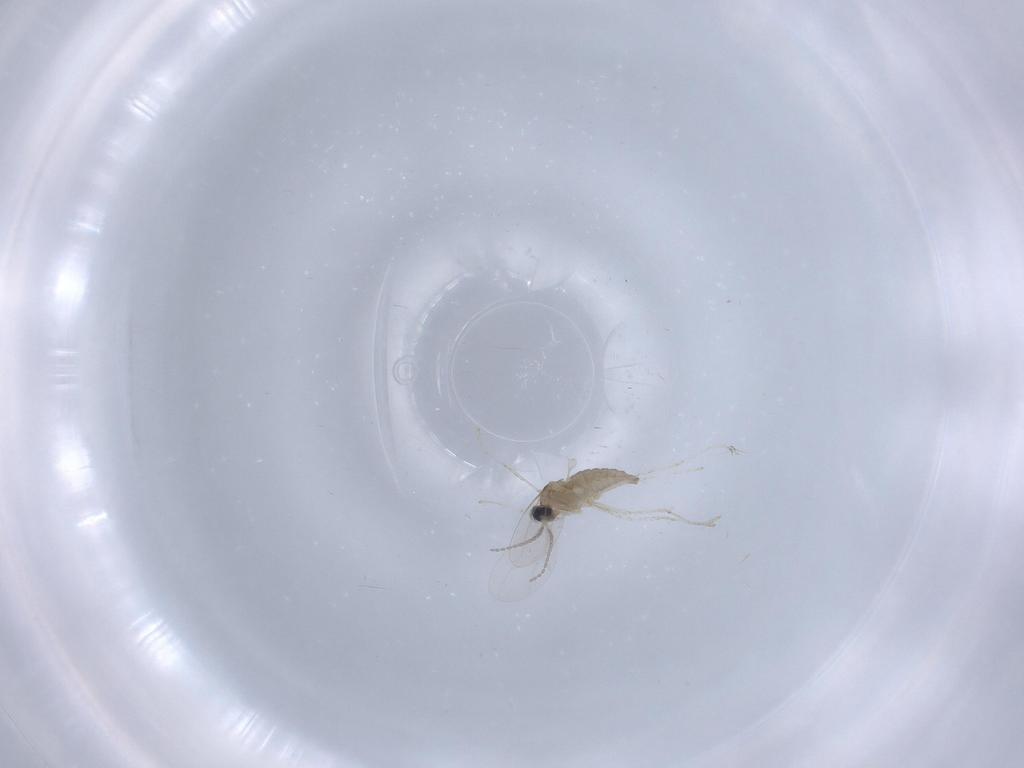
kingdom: Animalia
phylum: Arthropoda
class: Insecta
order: Diptera
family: Cecidomyiidae
